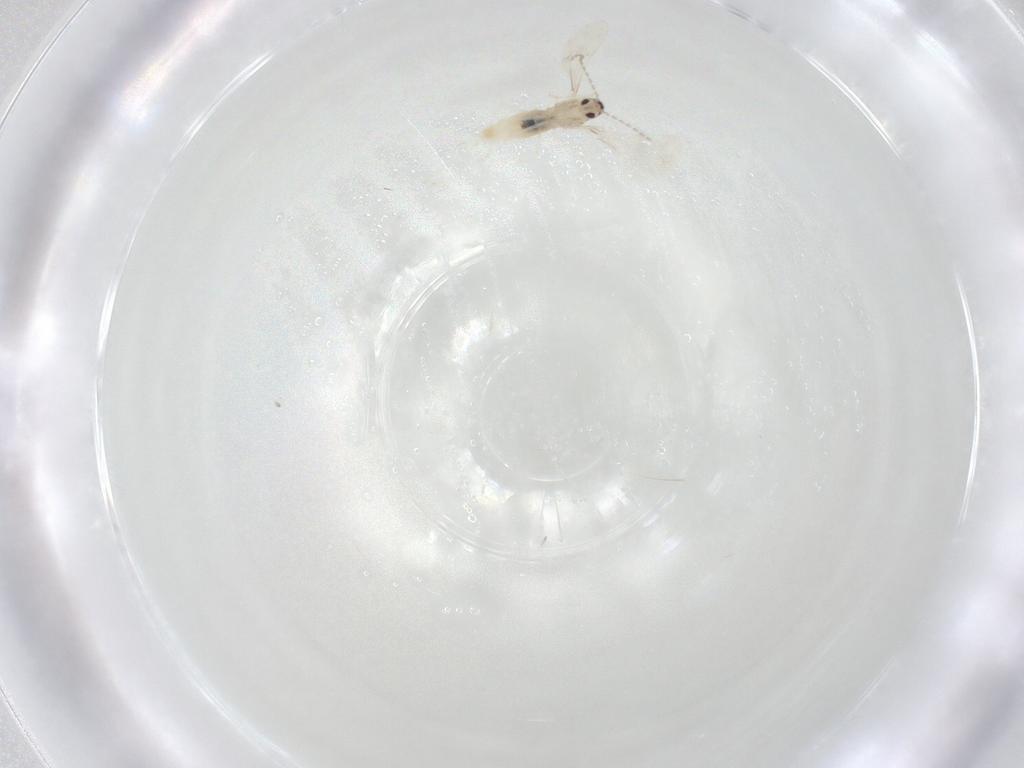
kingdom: Animalia
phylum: Arthropoda
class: Insecta
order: Diptera
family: Cecidomyiidae
